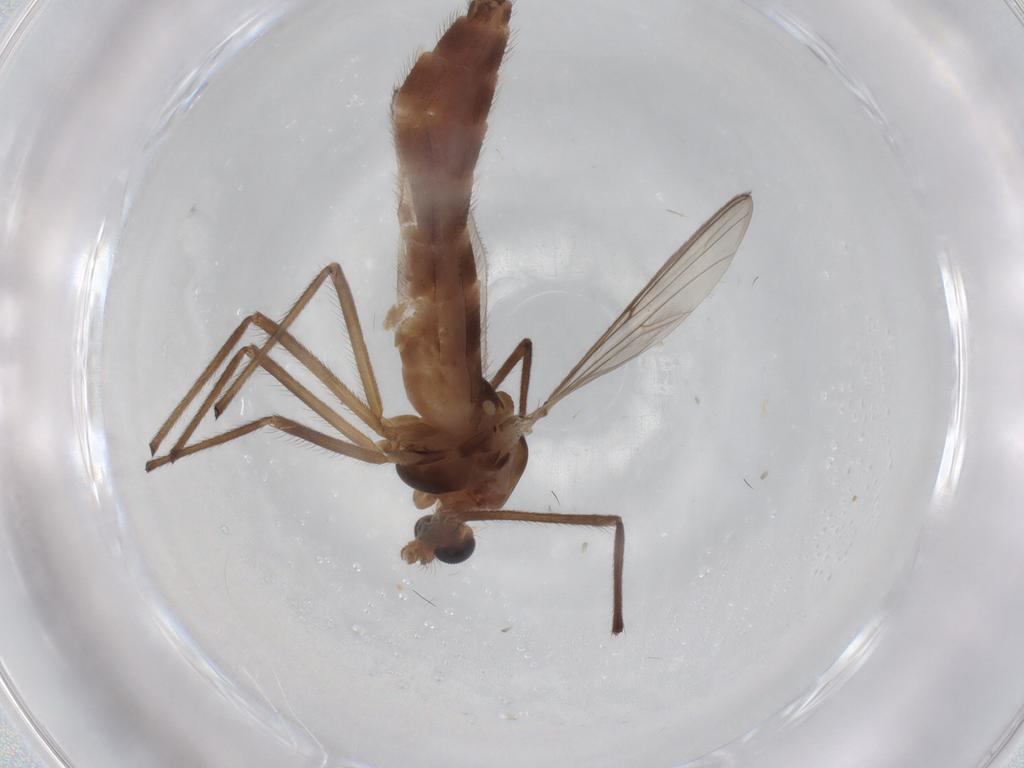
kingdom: Animalia
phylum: Arthropoda
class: Insecta
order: Diptera
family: Chironomidae
